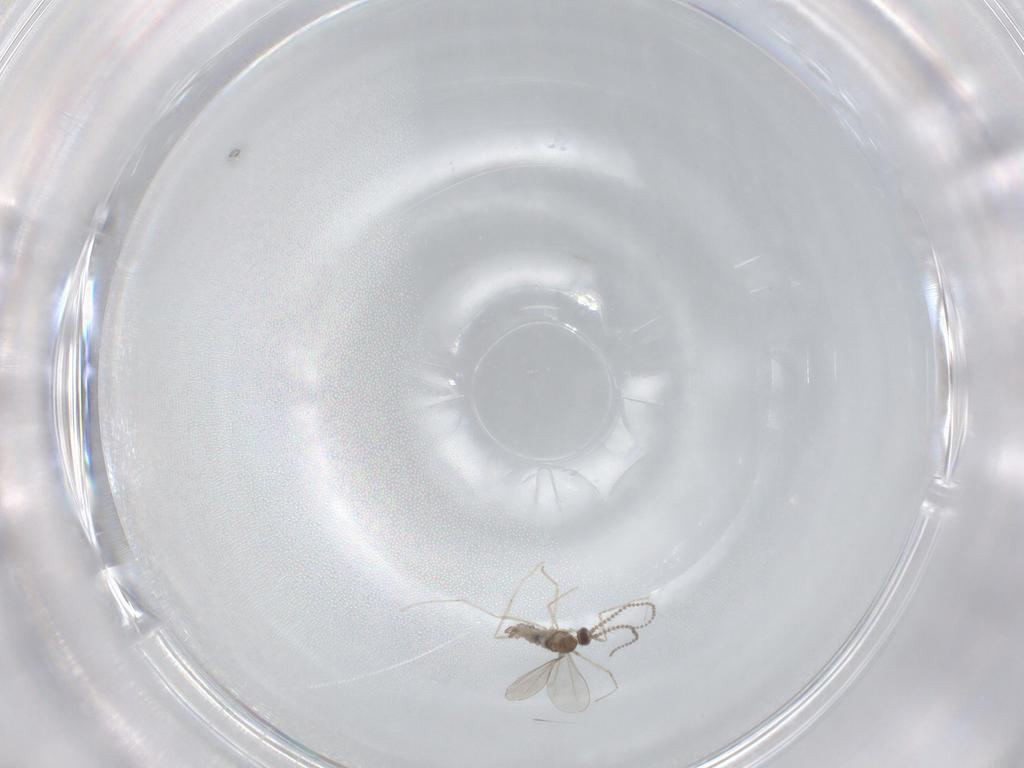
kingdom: Animalia
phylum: Arthropoda
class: Insecta
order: Diptera
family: Cecidomyiidae
